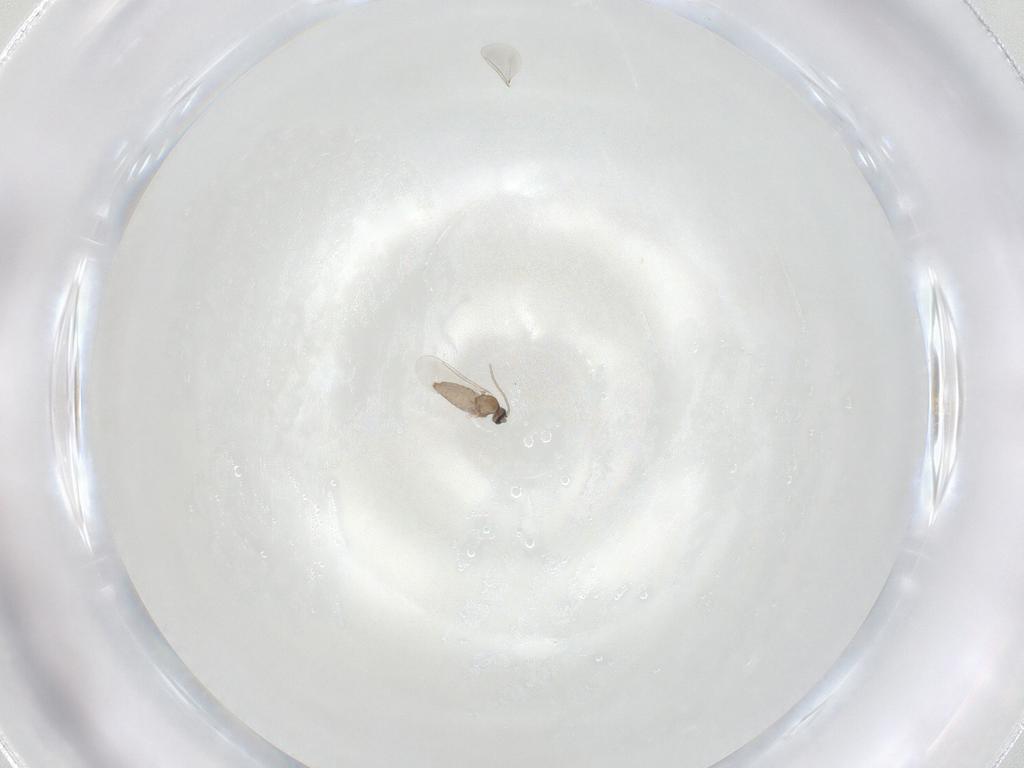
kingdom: Animalia
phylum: Arthropoda
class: Insecta
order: Diptera
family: Cecidomyiidae
